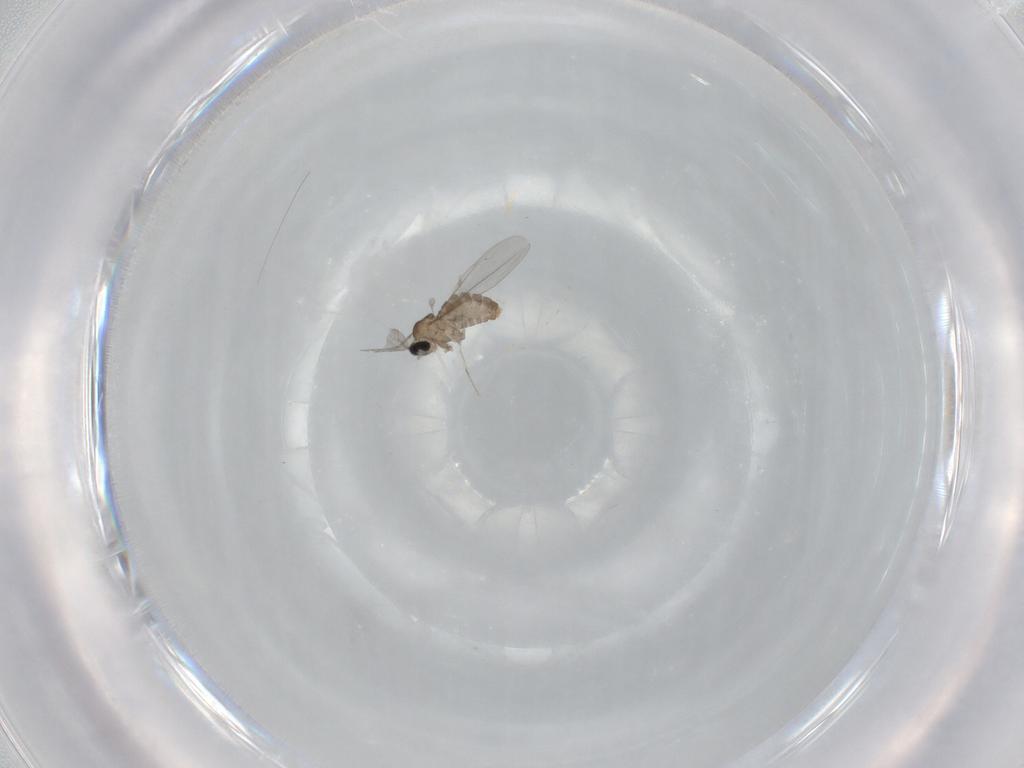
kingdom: Animalia
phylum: Arthropoda
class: Insecta
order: Diptera
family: Cecidomyiidae
